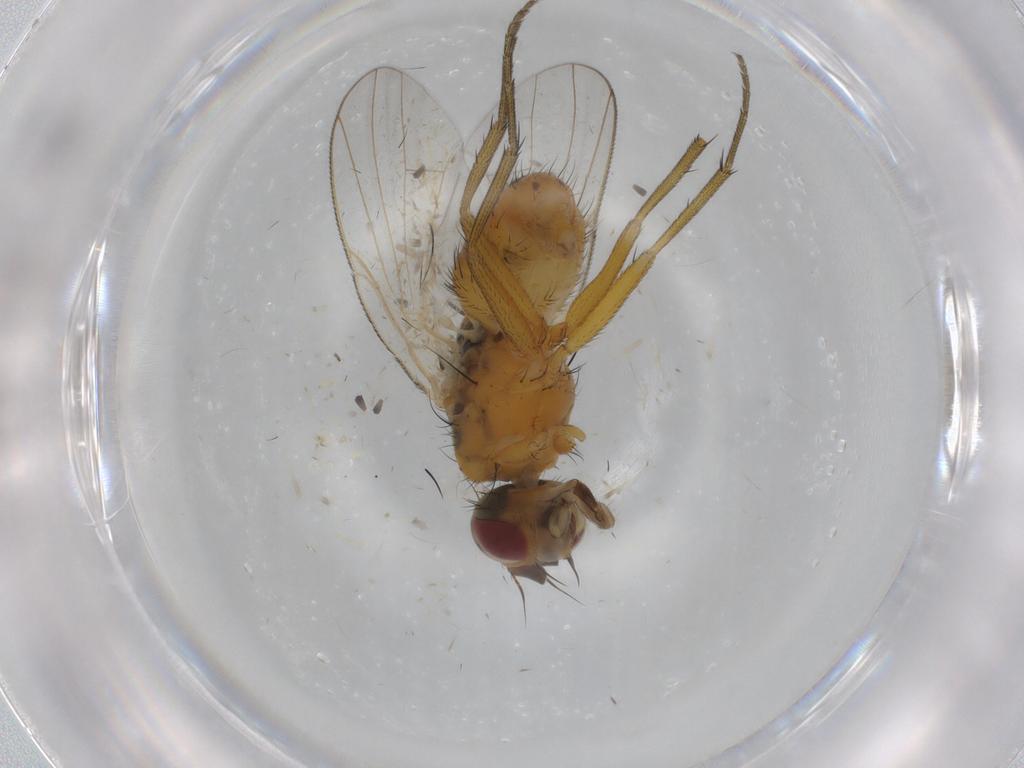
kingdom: Animalia
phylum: Arthropoda
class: Insecta
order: Diptera
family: Muscidae
